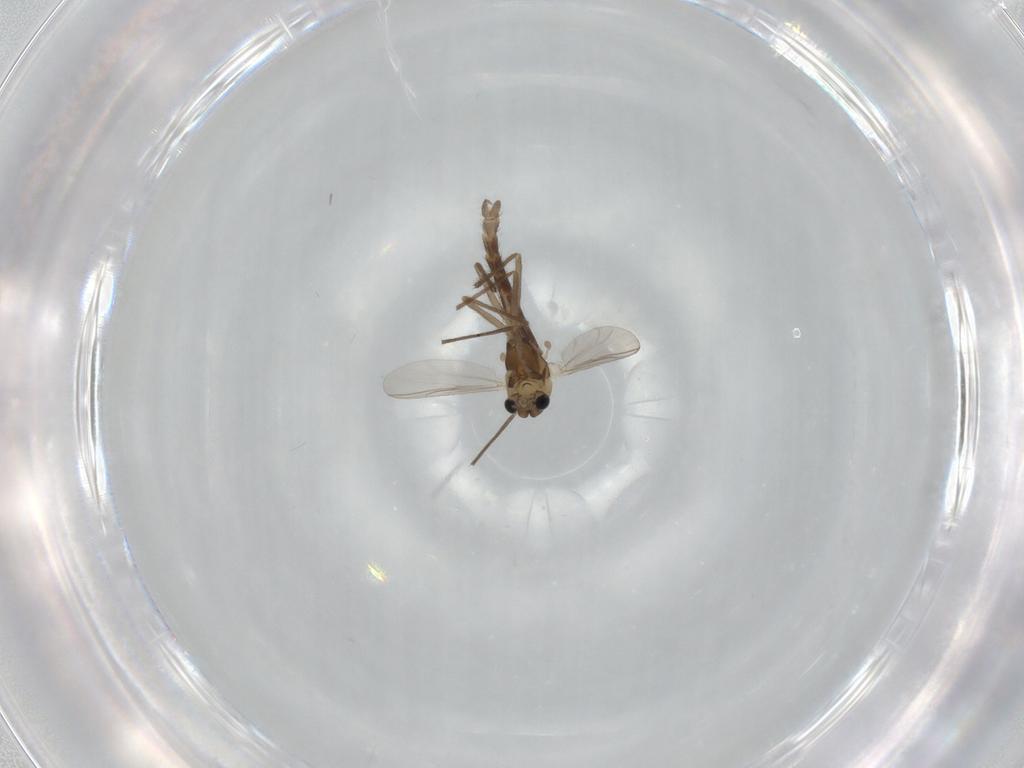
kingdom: Animalia
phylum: Arthropoda
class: Insecta
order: Diptera
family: Chironomidae
